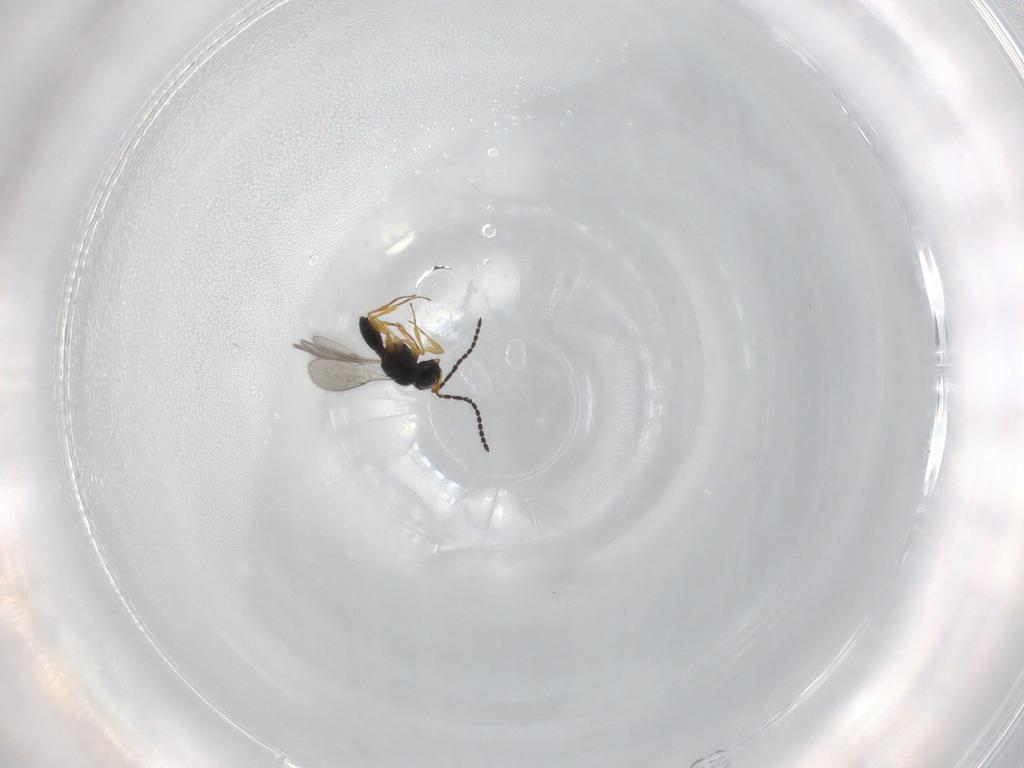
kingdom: Animalia
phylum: Arthropoda
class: Insecta
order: Hymenoptera
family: Scelionidae
